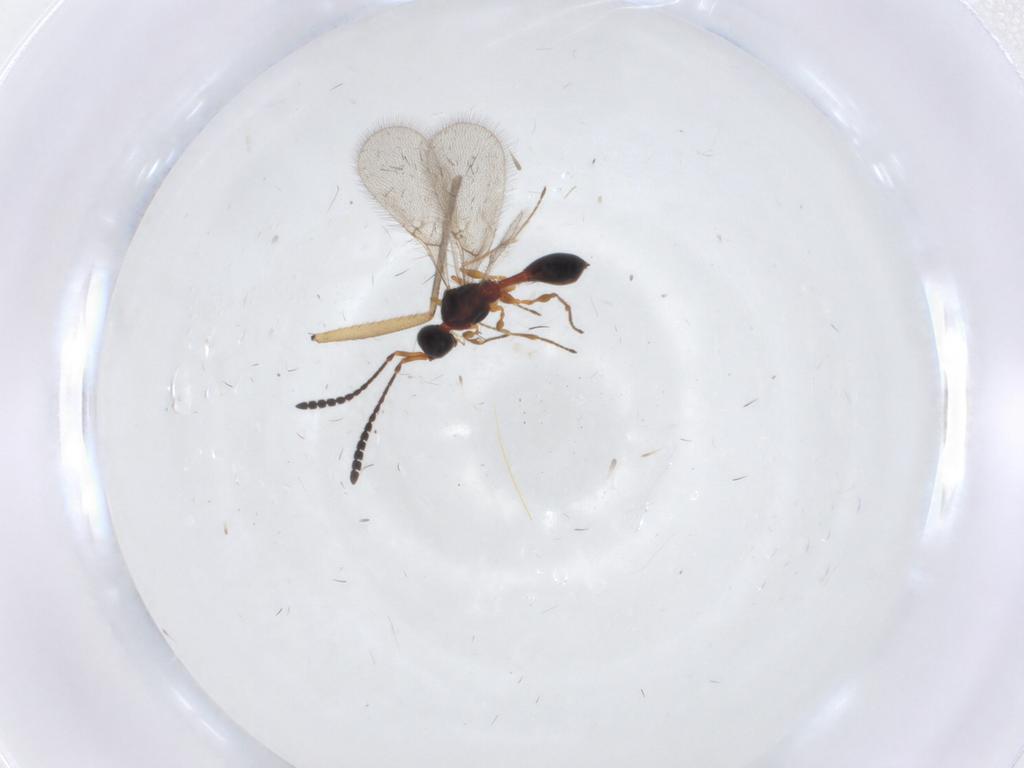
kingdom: Animalia
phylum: Arthropoda
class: Insecta
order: Hymenoptera
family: Diapriidae
